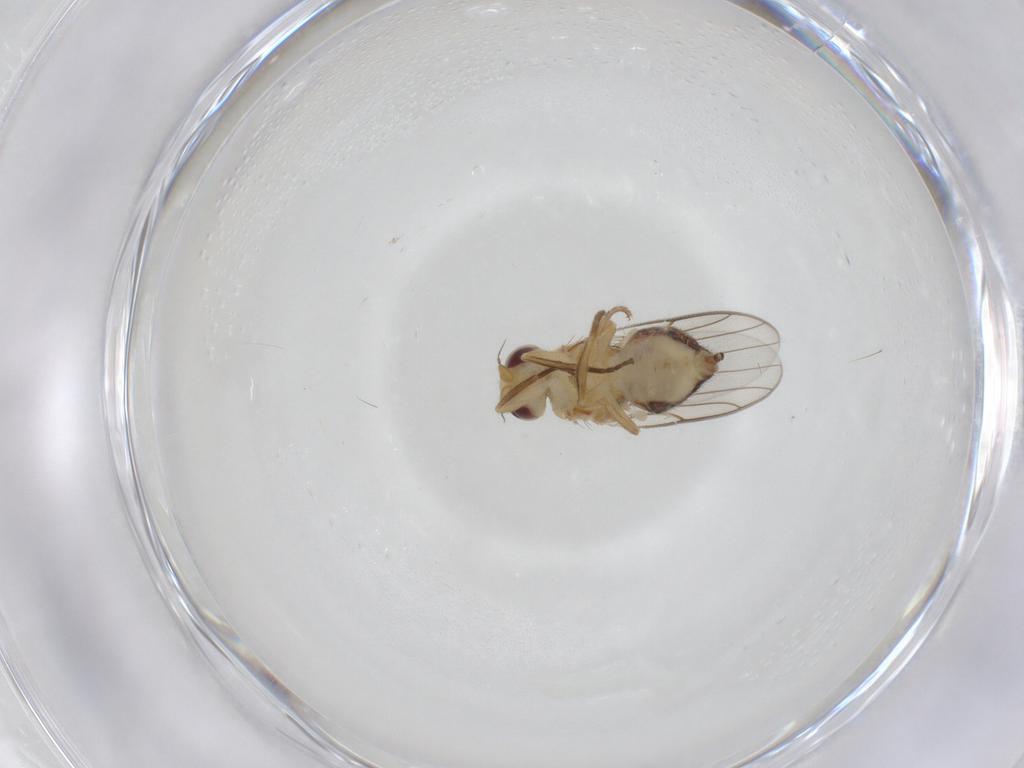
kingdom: Animalia
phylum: Arthropoda
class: Insecta
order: Diptera
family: Chloropidae
